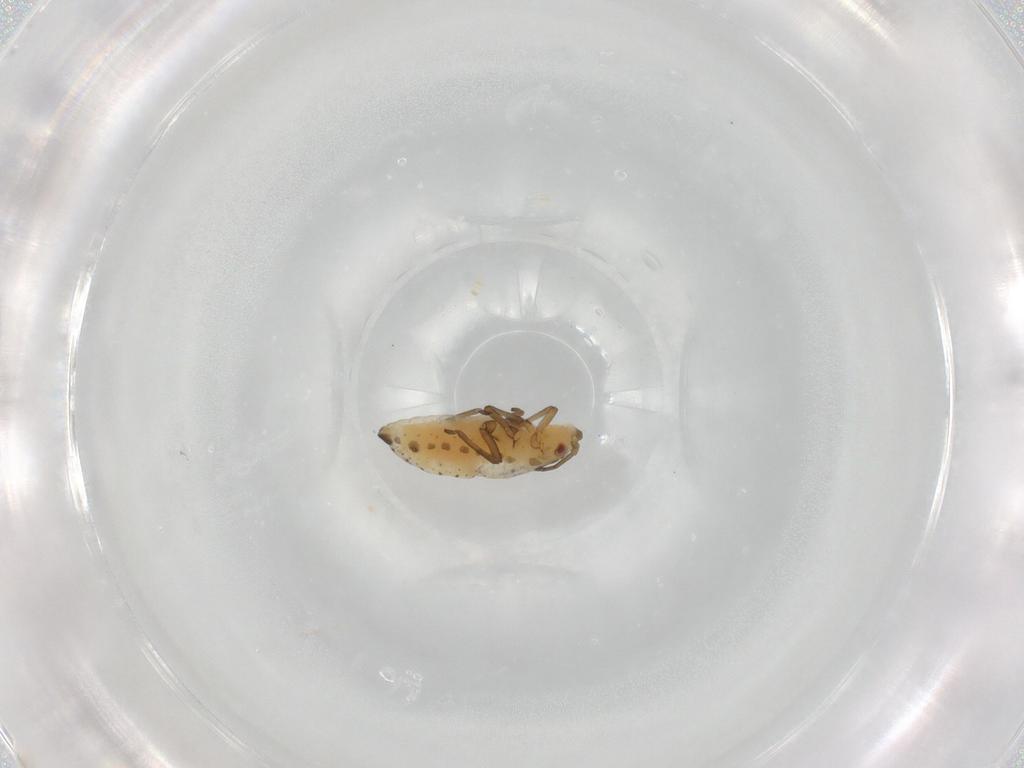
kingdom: Animalia
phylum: Arthropoda
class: Insecta
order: Hemiptera
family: Aphididae
